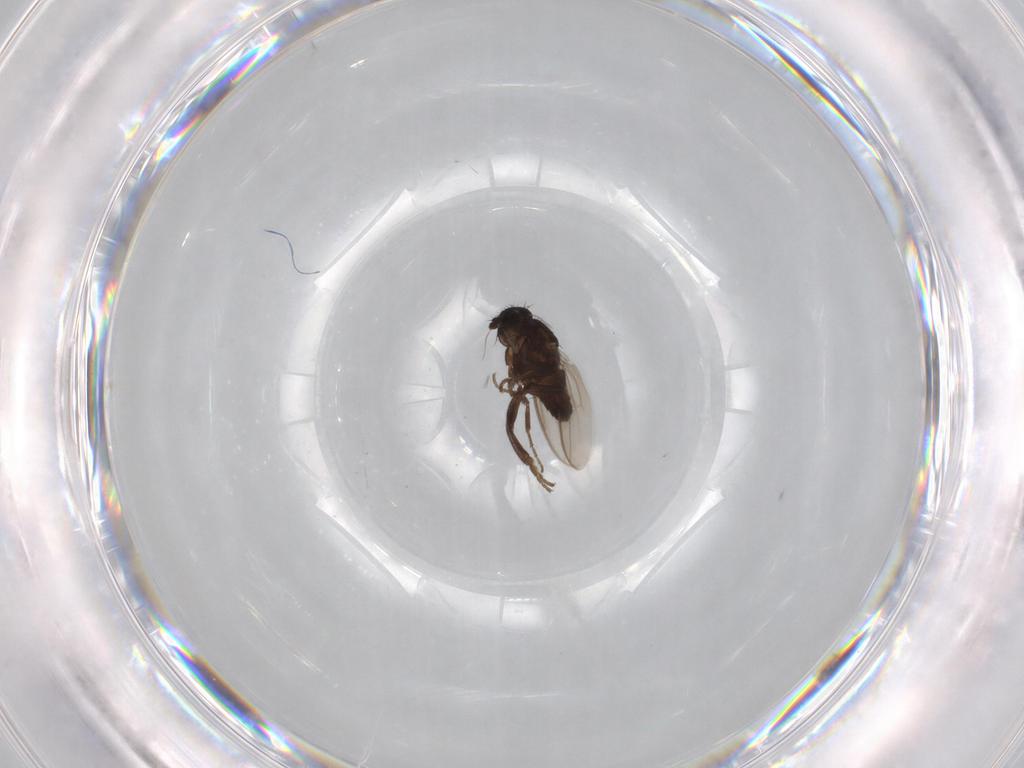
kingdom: Animalia
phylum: Arthropoda
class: Insecta
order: Diptera
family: Sphaeroceridae
